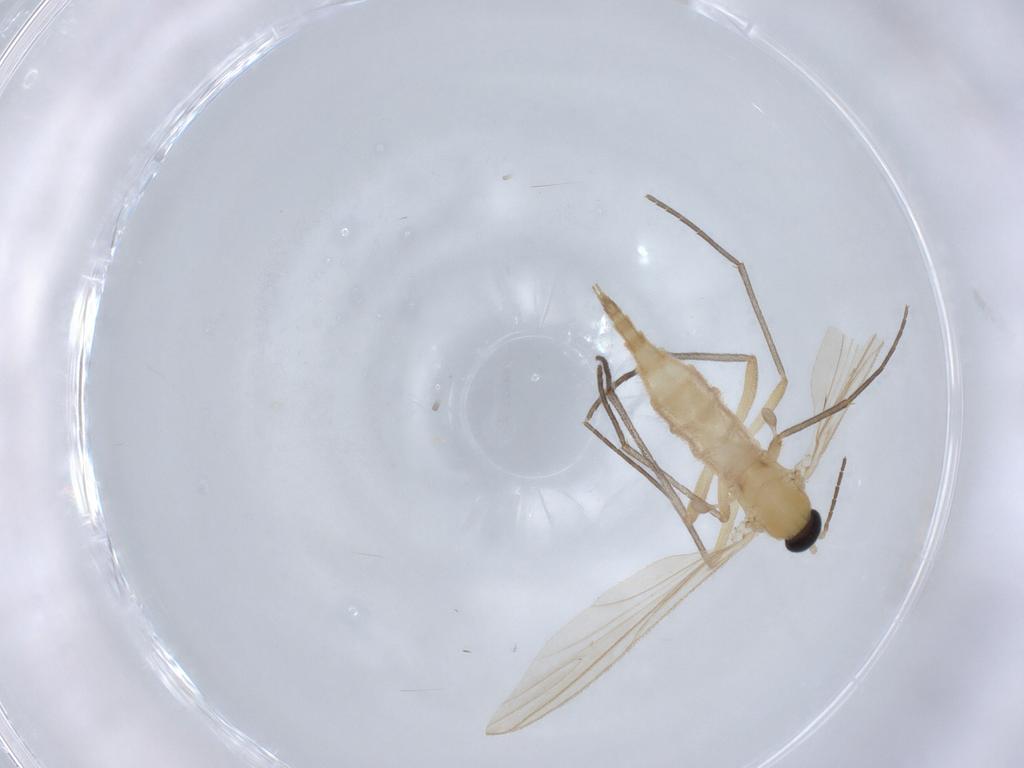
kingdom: Animalia
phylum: Arthropoda
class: Insecta
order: Diptera
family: Sciaridae
